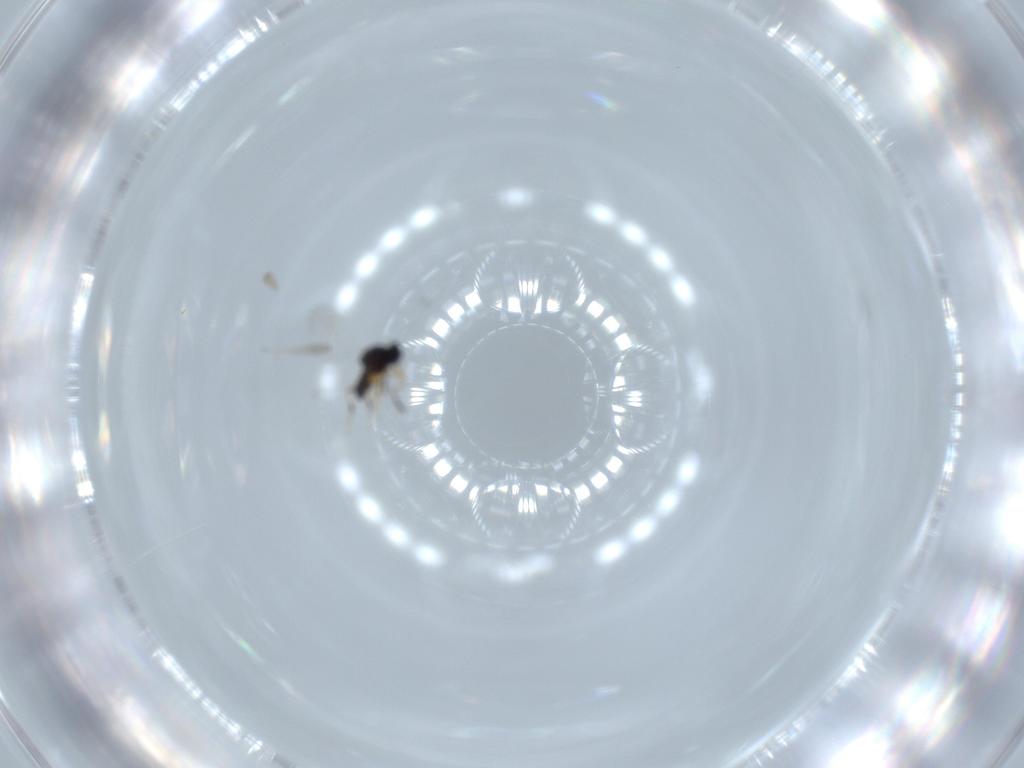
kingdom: Animalia
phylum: Arthropoda
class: Insecta
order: Hymenoptera
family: Platygastridae
